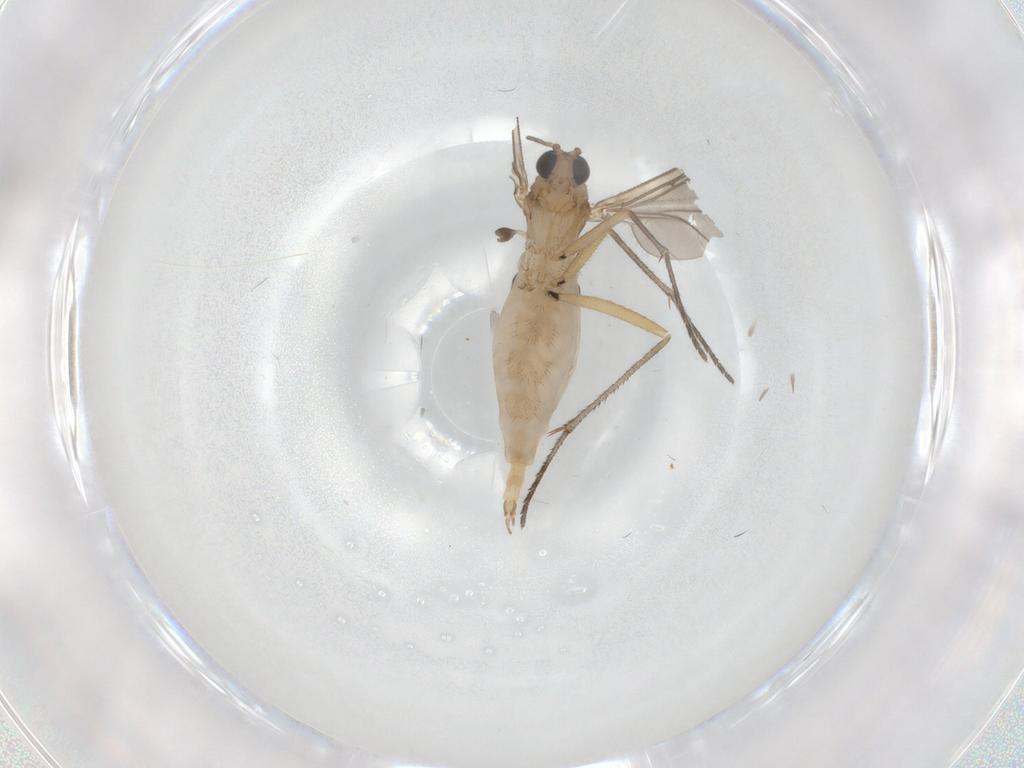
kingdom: Animalia
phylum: Arthropoda
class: Insecta
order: Diptera
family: Sciaridae
